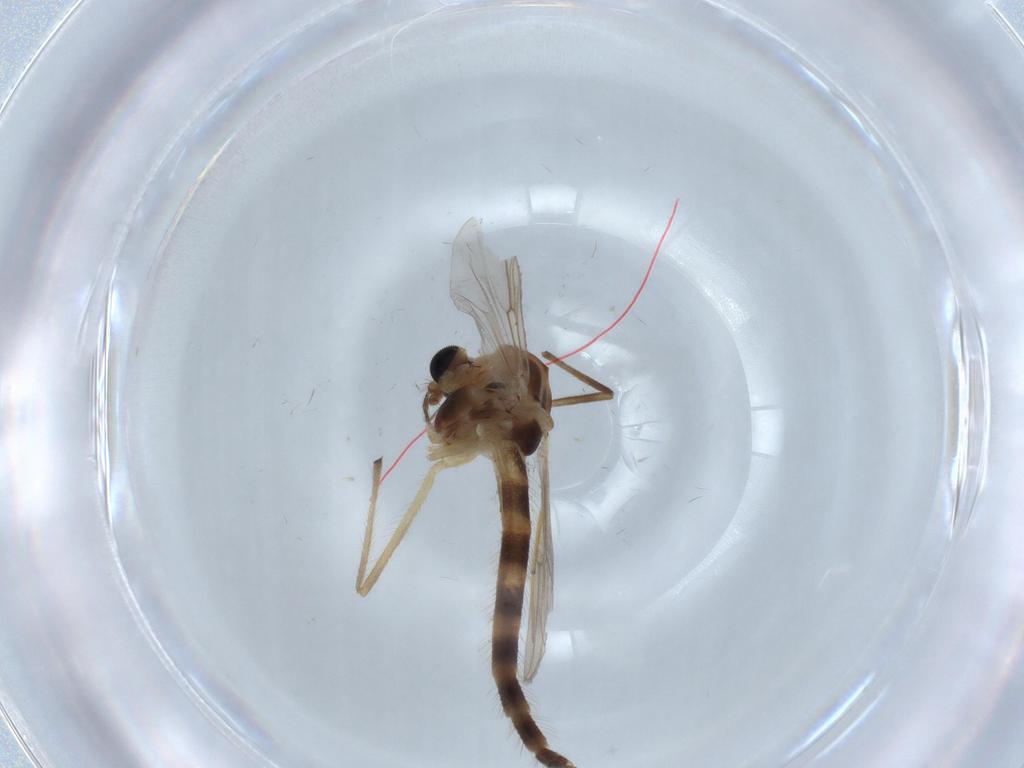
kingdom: Animalia
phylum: Arthropoda
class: Insecta
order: Diptera
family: Chironomidae
